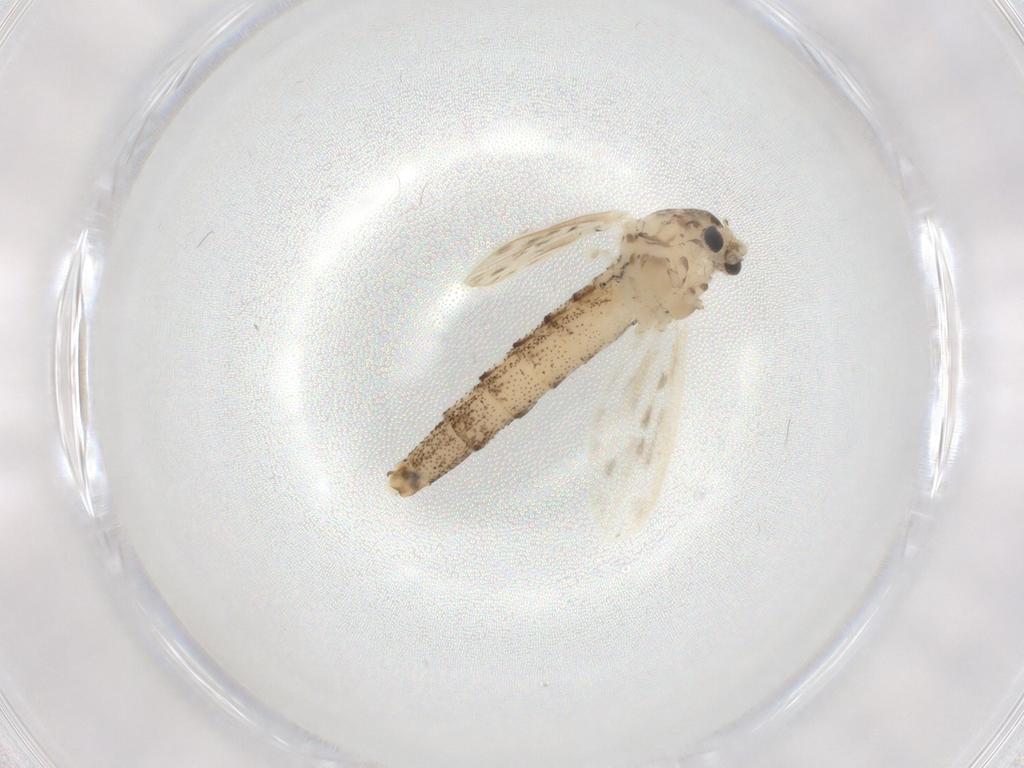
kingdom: Animalia
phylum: Arthropoda
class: Insecta
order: Diptera
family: Chaoboridae
